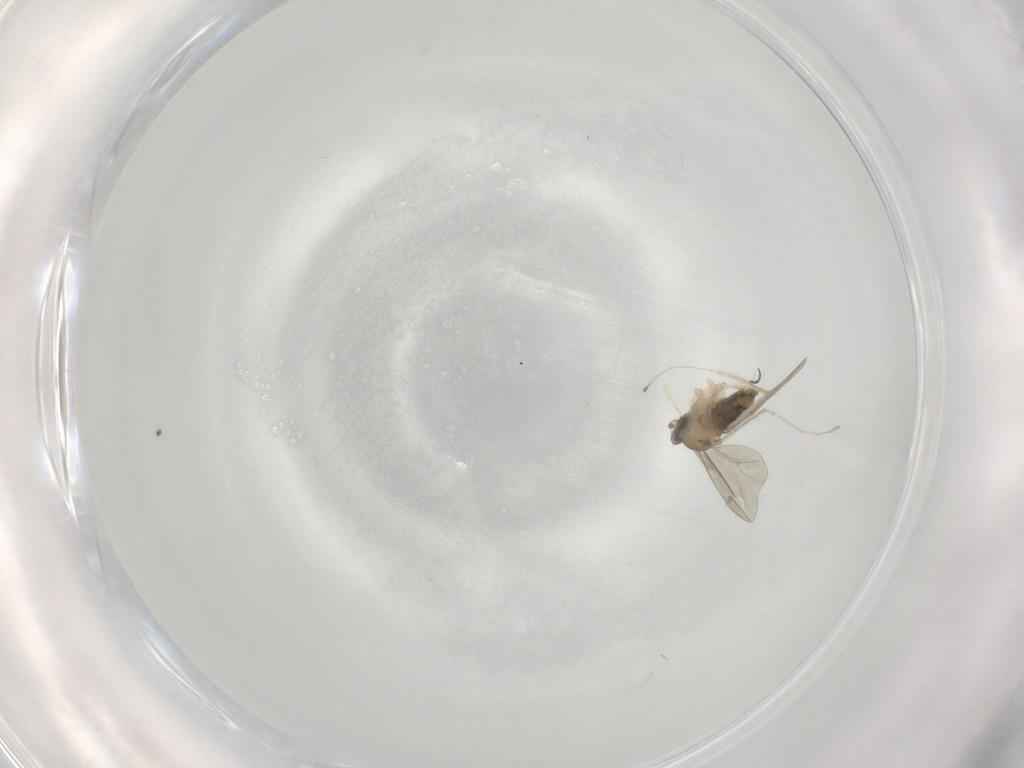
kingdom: Animalia
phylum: Arthropoda
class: Insecta
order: Diptera
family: Cecidomyiidae
